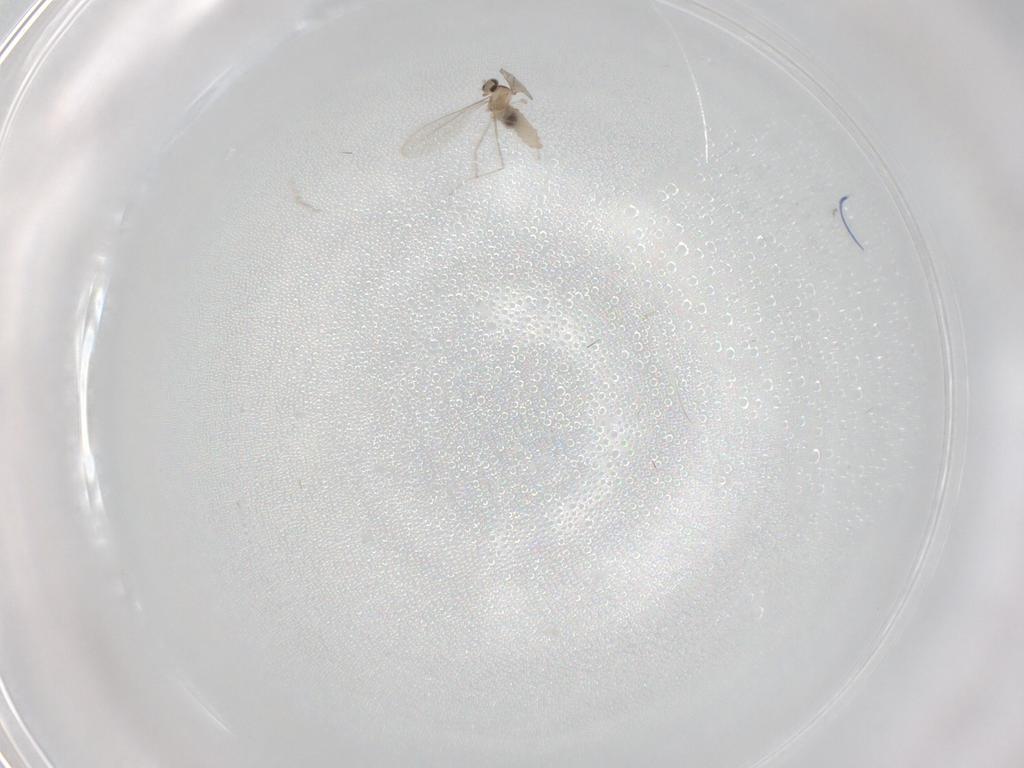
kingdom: Animalia
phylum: Arthropoda
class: Insecta
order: Diptera
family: Cecidomyiidae
